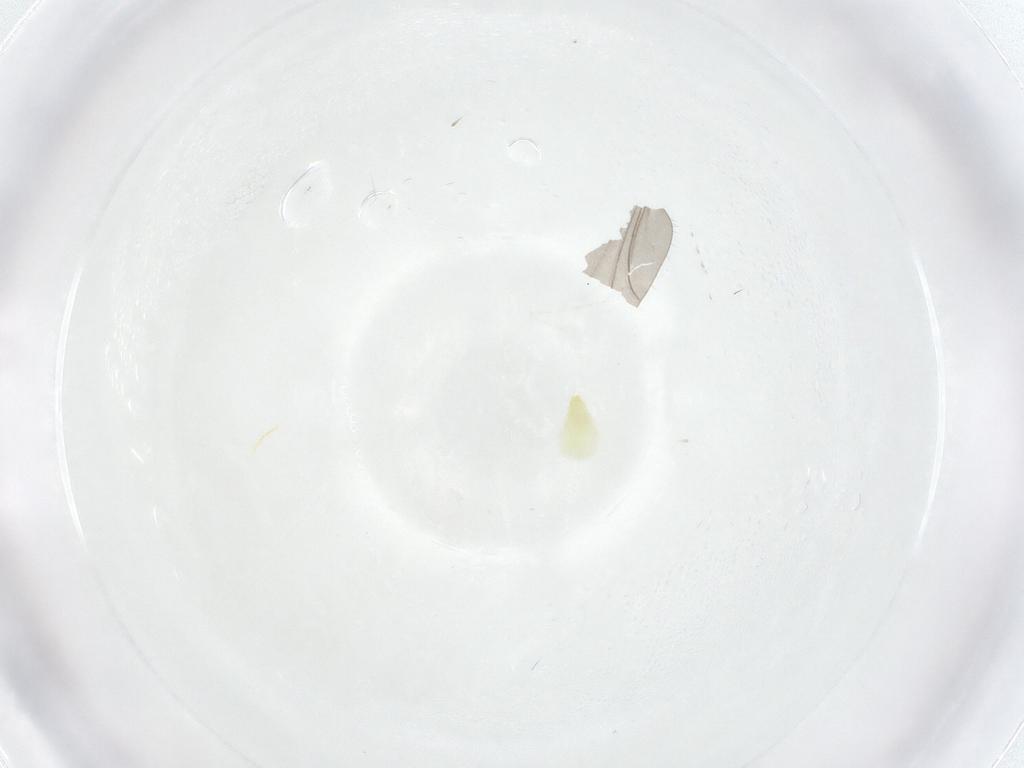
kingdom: Animalia
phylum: Arthropoda
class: Insecta
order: Hemiptera
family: Aleyrodidae
